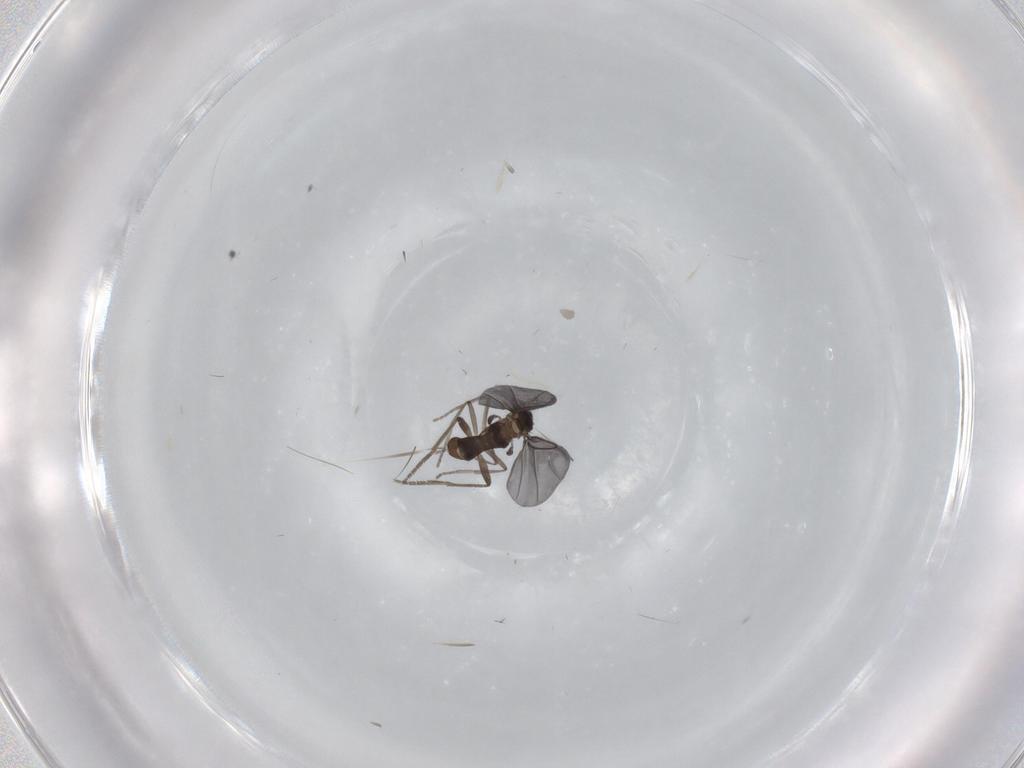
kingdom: Animalia
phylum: Arthropoda
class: Insecta
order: Diptera
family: Phoridae
